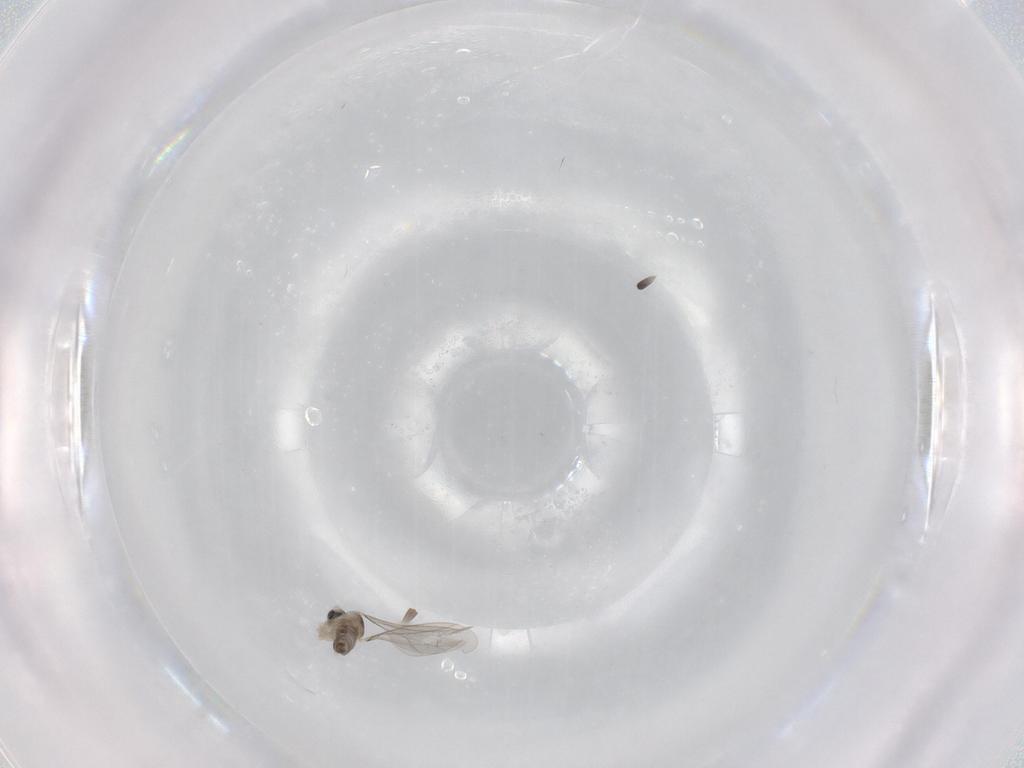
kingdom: Animalia
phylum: Arthropoda
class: Insecta
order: Diptera
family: Cecidomyiidae
